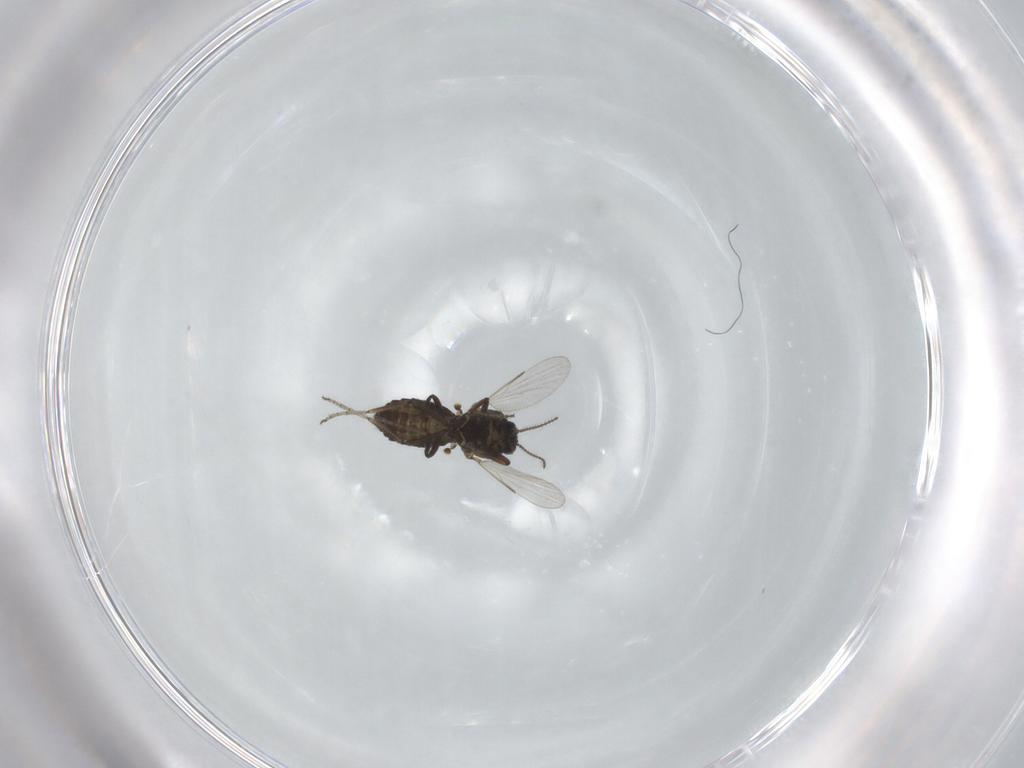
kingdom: Animalia
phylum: Arthropoda
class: Insecta
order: Diptera
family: Ceratopogonidae
